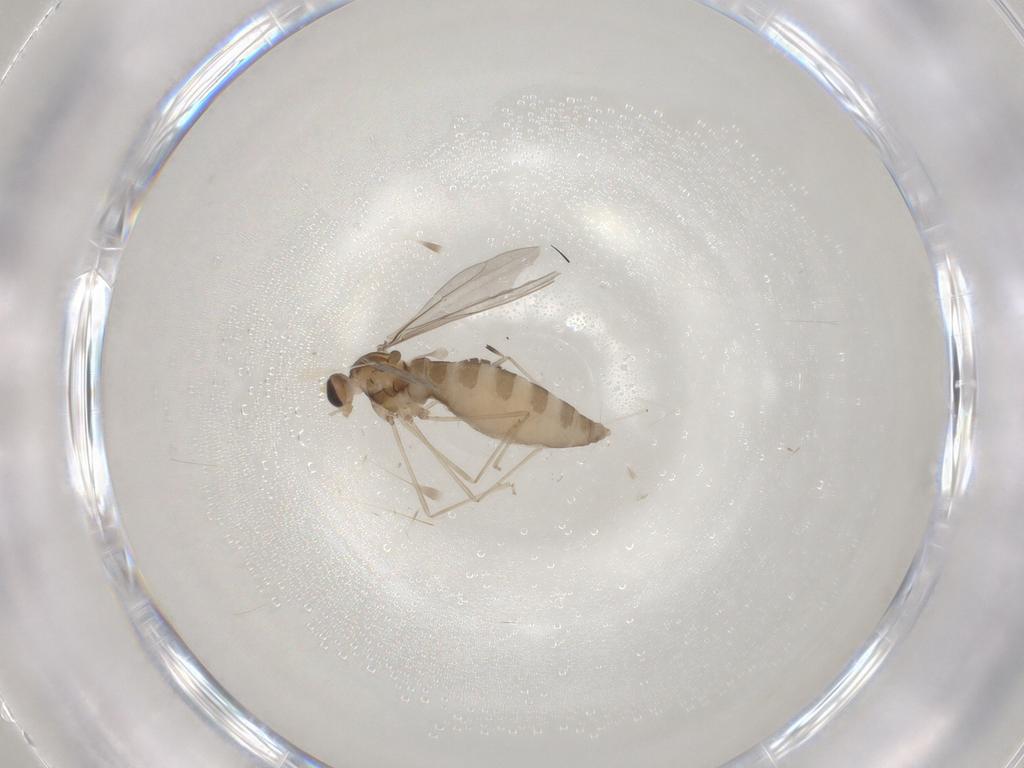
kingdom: Animalia
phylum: Arthropoda
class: Insecta
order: Diptera
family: Cecidomyiidae
